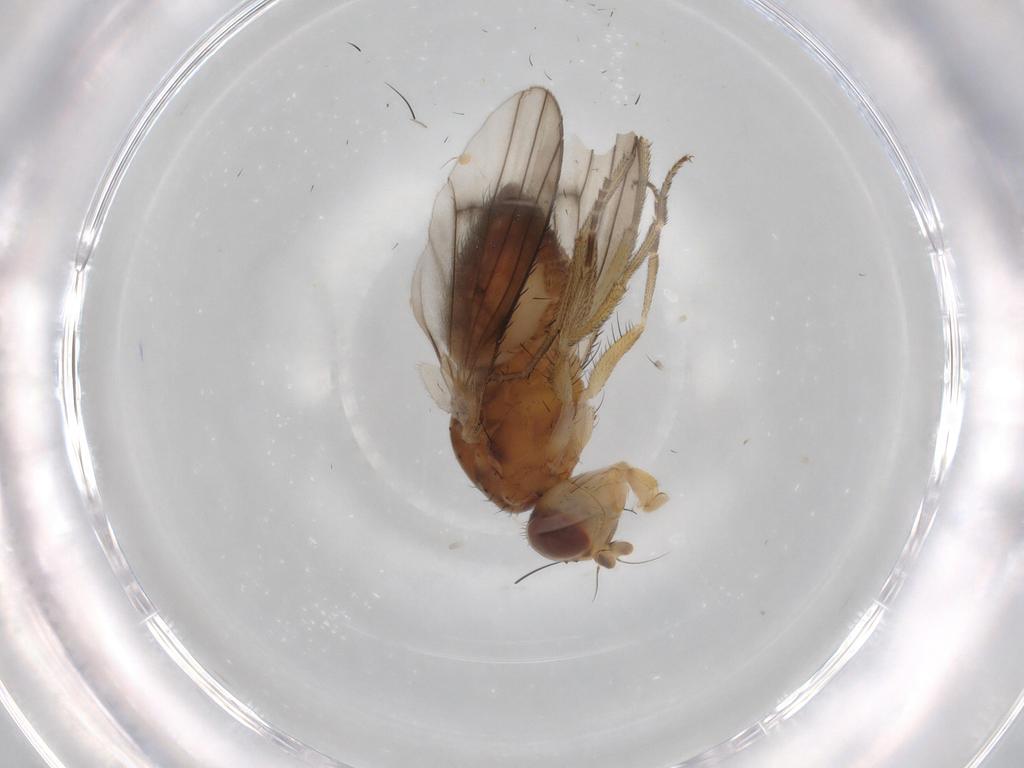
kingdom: Animalia
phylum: Arthropoda
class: Insecta
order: Diptera
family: Sphaeroceridae
